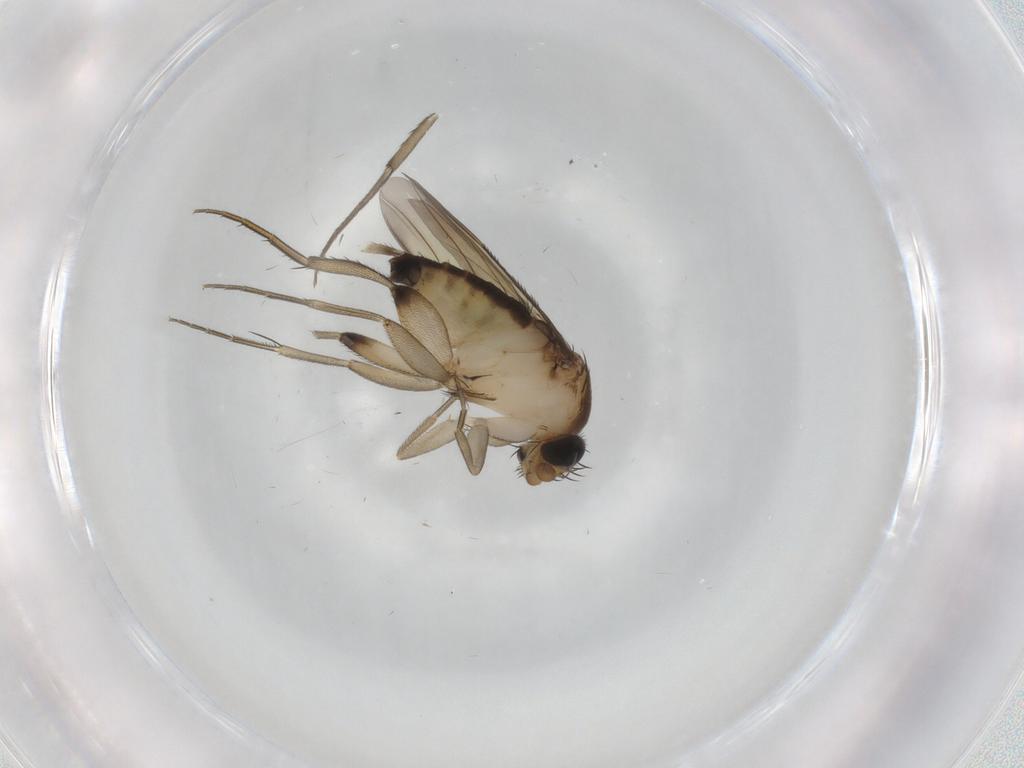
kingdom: Animalia
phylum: Arthropoda
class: Insecta
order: Diptera
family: Phoridae
